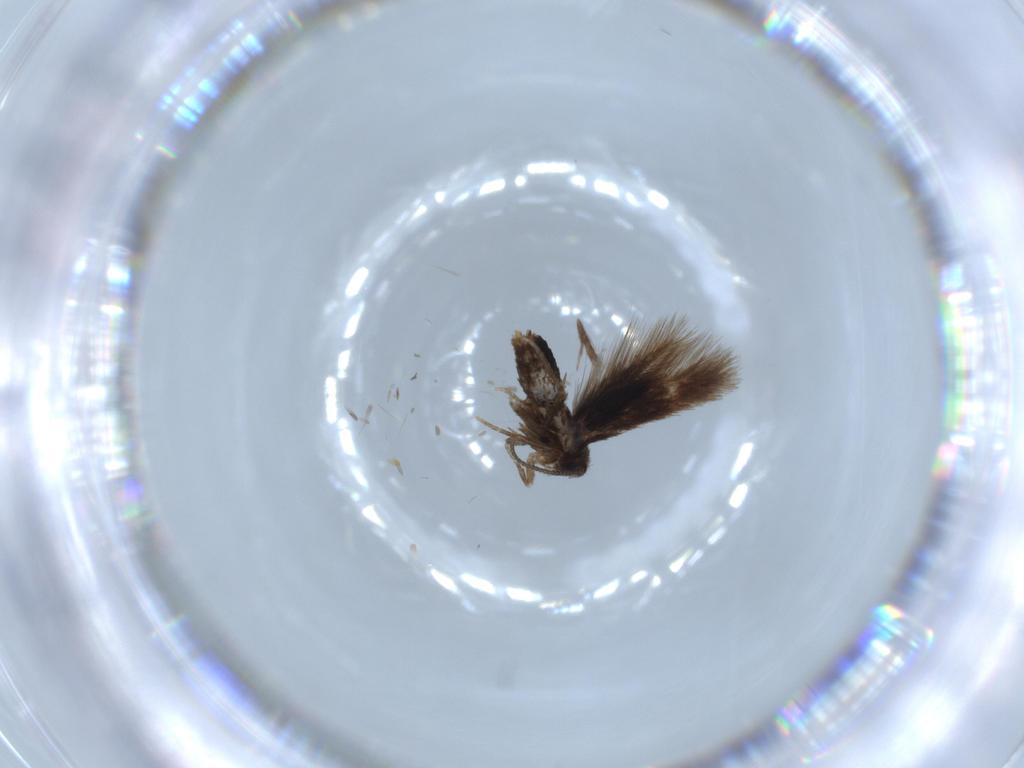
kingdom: Animalia
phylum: Arthropoda
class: Insecta
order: Lepidoptera
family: Nepticulidae
